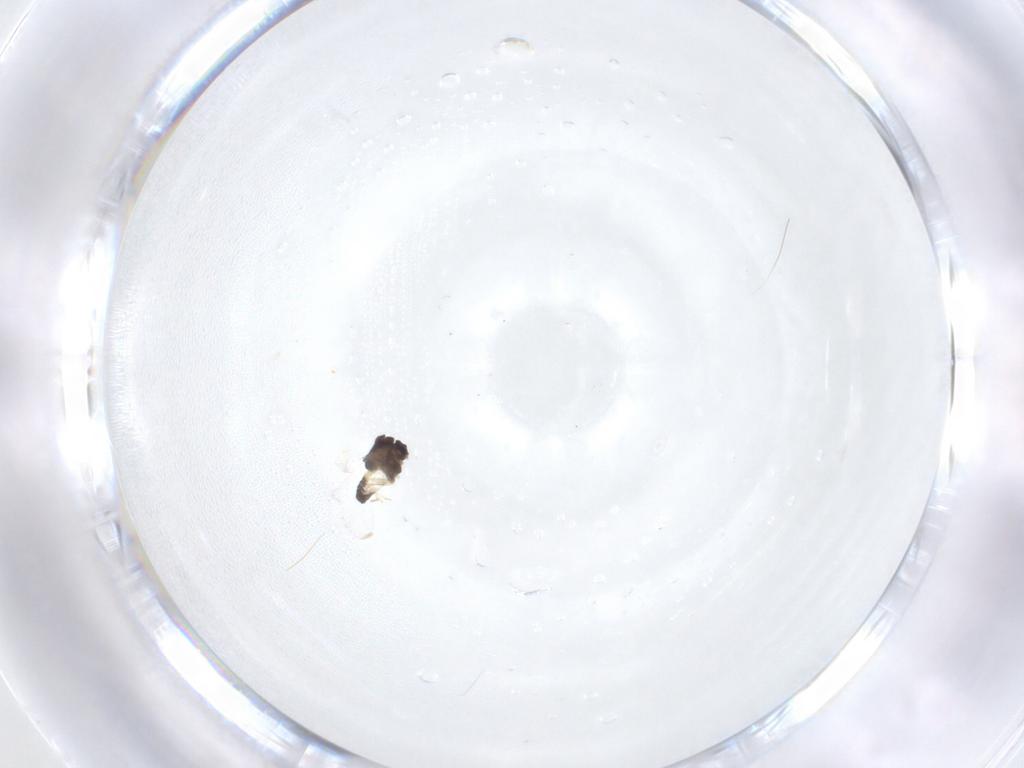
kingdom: Animalia
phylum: Arthropoda
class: Insecta
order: Diptera
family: Chironomidae
